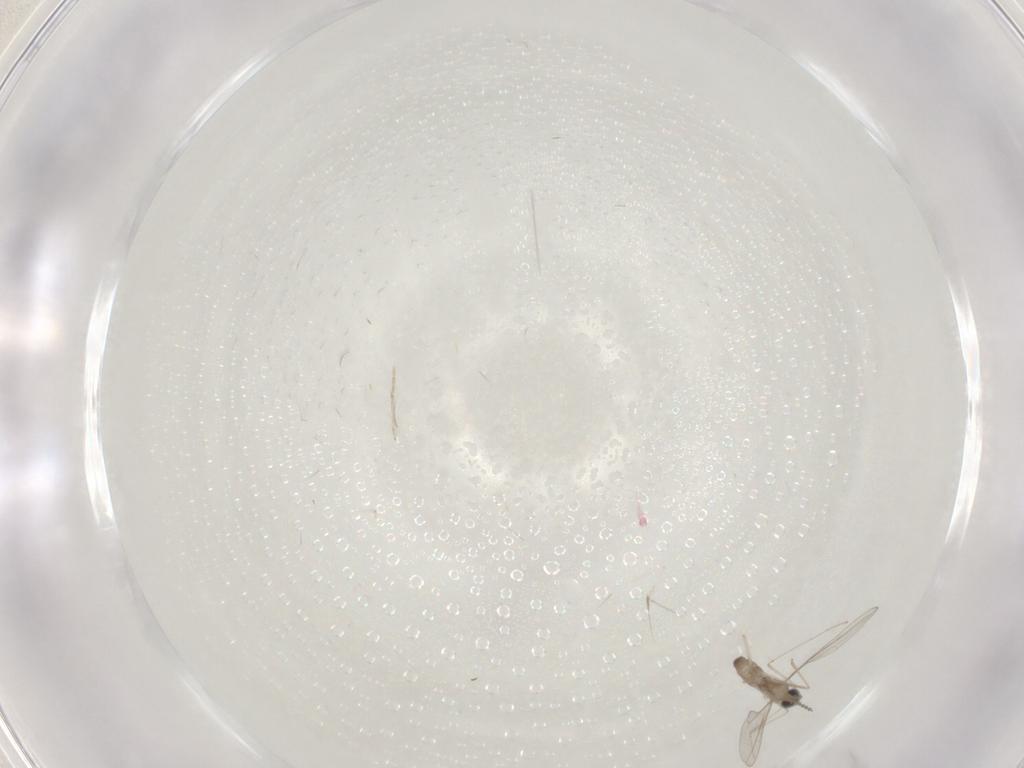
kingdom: Animalia
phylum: Arthropoda
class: Insecta
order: Diptera
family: Cecidomyiidae
